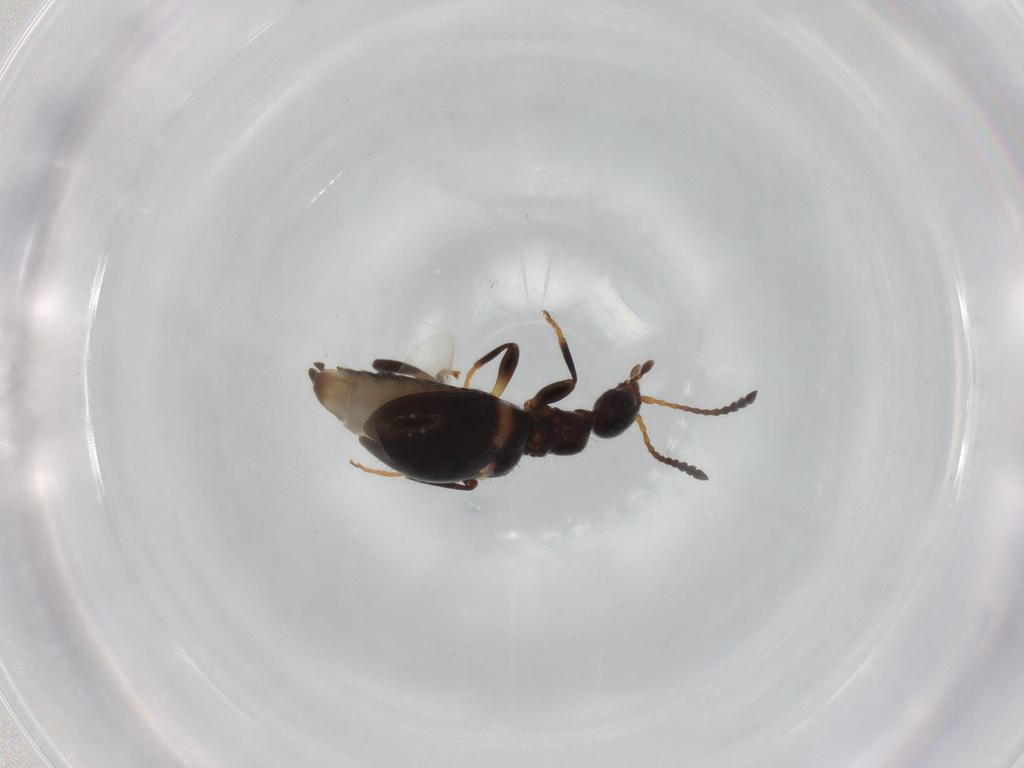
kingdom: Animalia
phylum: Arthropoda
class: Insecta
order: Coleoptera
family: Anthicidae
